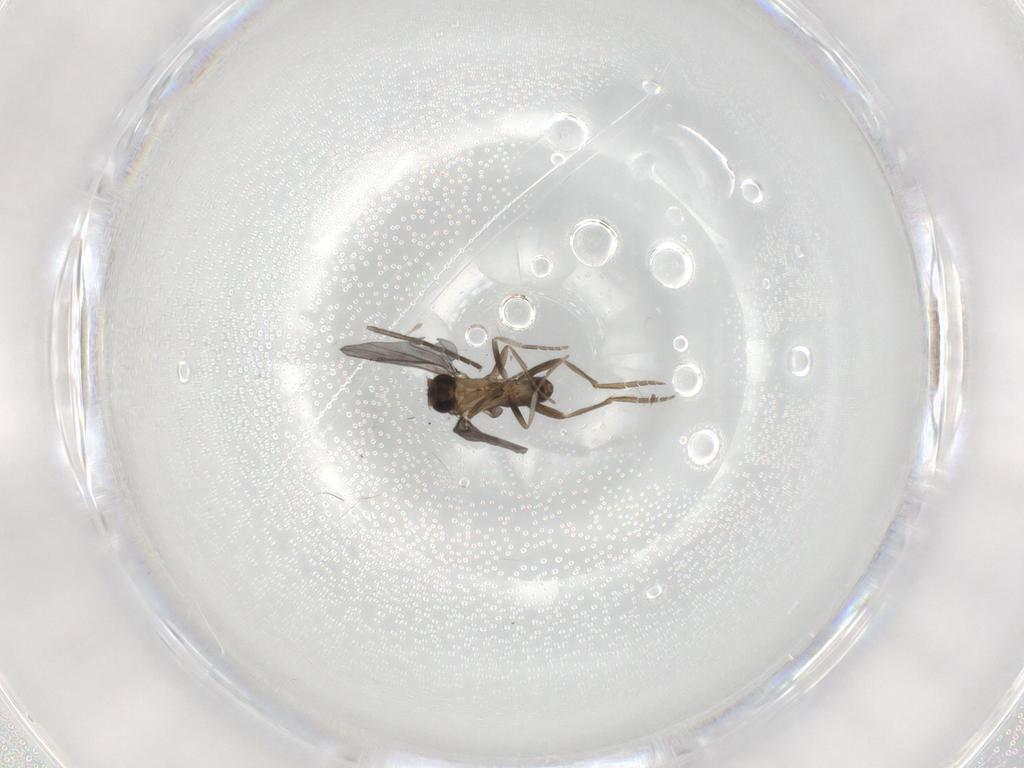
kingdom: Animalia
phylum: Arthropoda
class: Insecta
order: Diptera
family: Sciaridae
